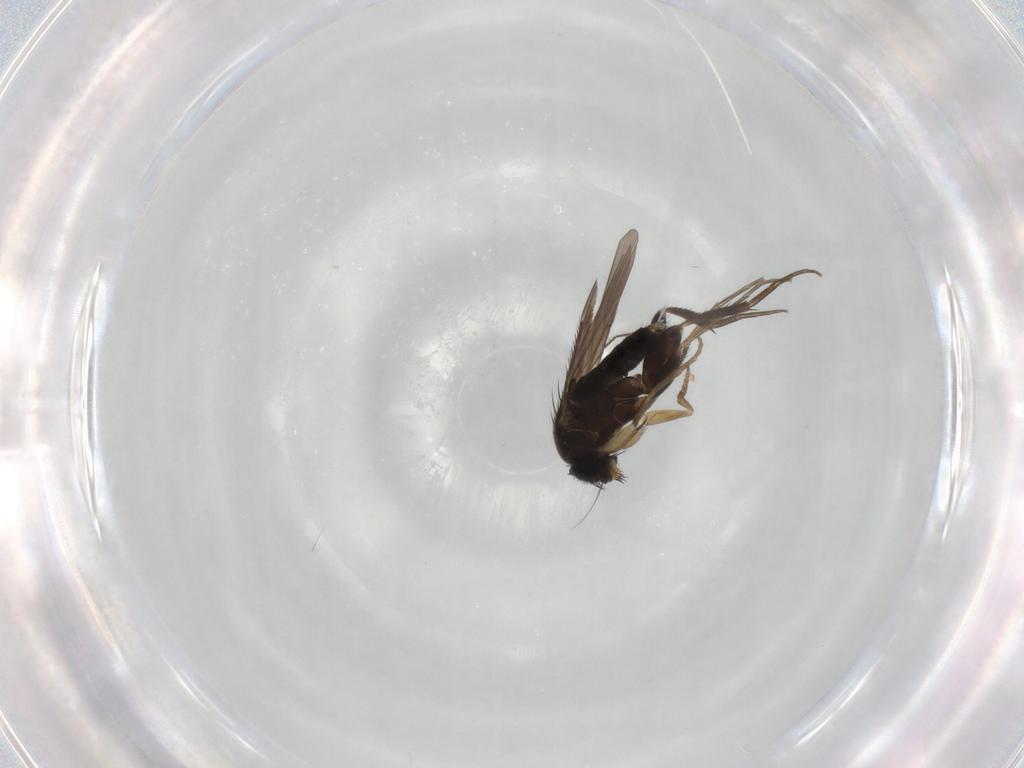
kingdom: Animalia
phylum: Arthropoda
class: Insecta
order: Diptera
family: Phoridae
